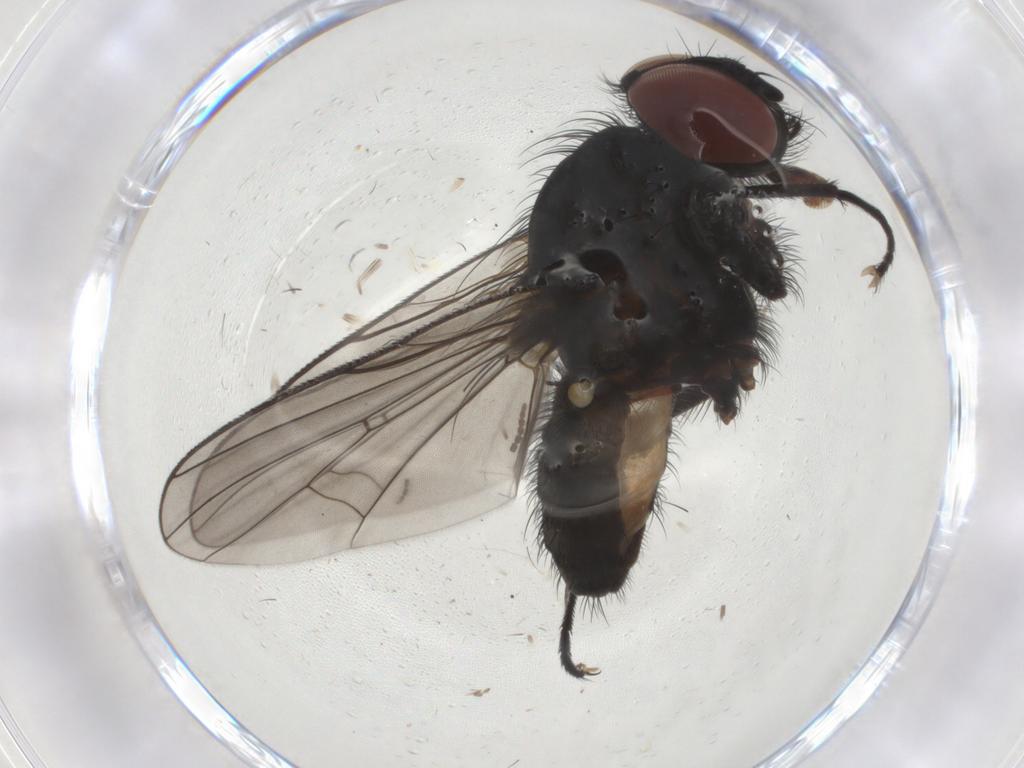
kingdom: Animalia
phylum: Arthropoda
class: Insecta
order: Diptera
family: Anthomyiidae
